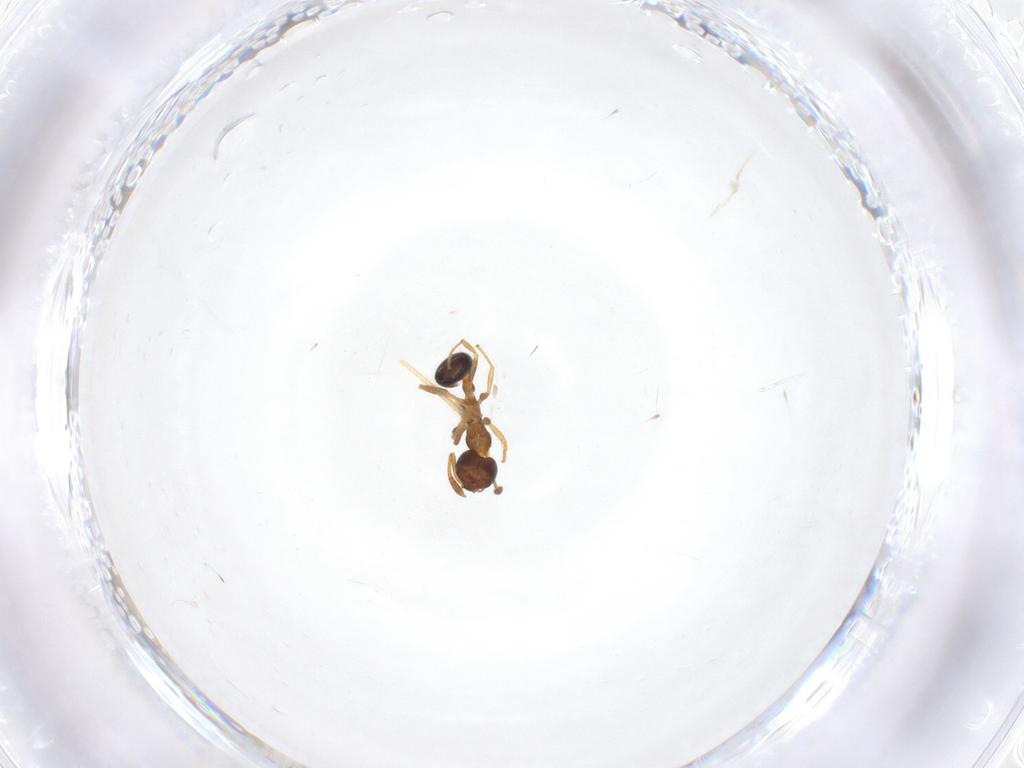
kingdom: Animalia
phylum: Arthropoda
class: Insecta
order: Hymenoptera
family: Formicidae
